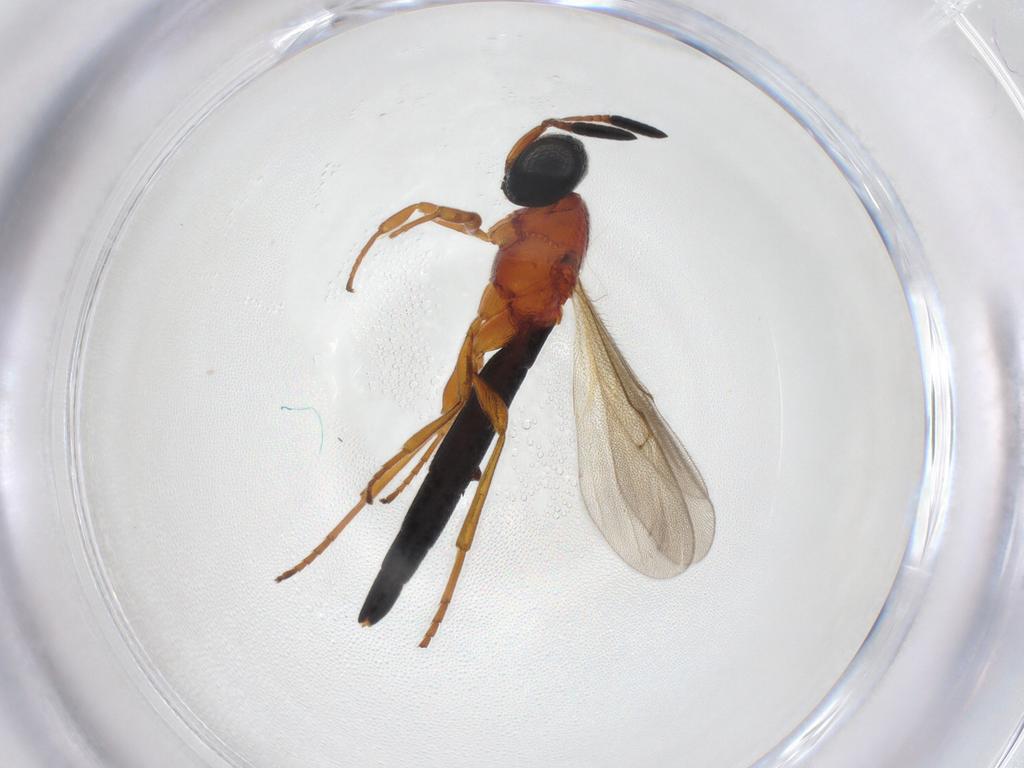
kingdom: Animalia
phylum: Arthropoda
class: Insecta
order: Hymenoptera
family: Scelionidae
